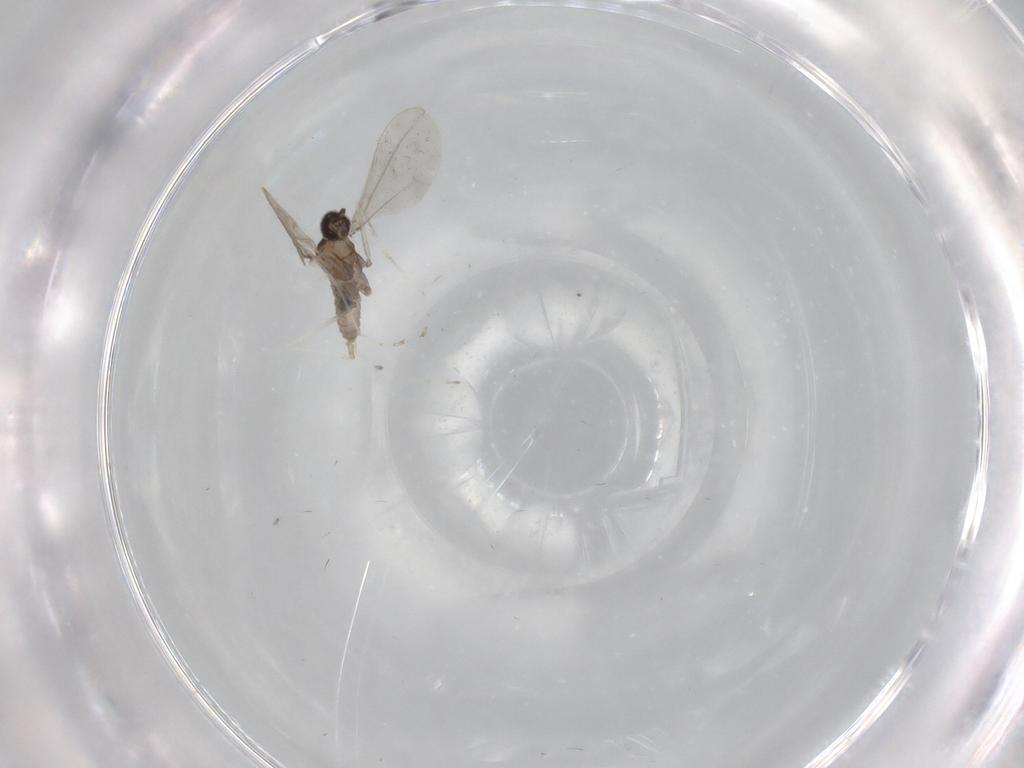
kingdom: Animalia
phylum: Arthropoda
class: Insecta
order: Diptera
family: Cecidomyiidae
